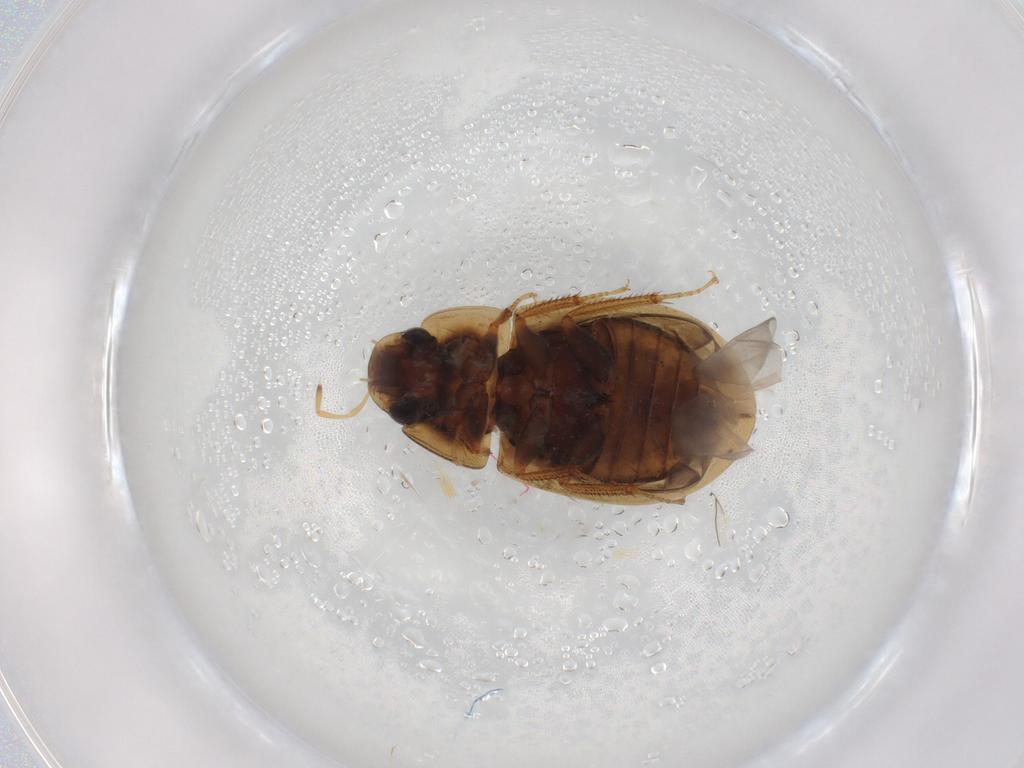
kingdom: Animalia
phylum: Arthropoda
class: Insecta
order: Coleoptera
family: Hydrophilidae
